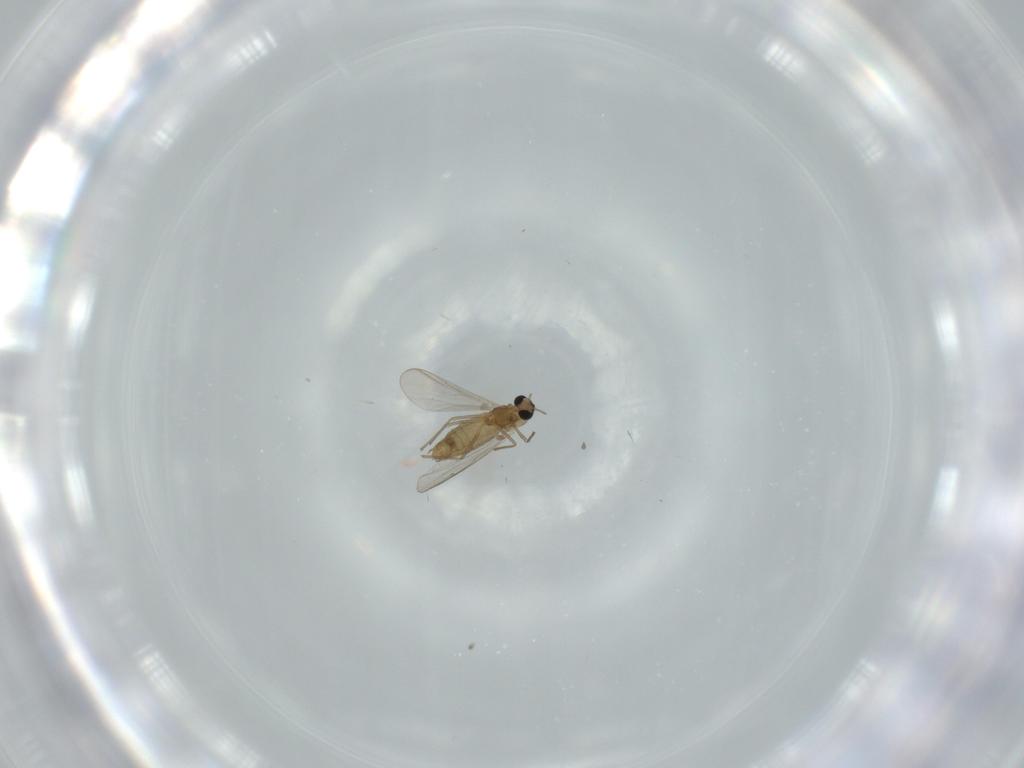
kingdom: Animalia
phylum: Arthropoda
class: Insecta
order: Diptera
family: Chironomidae
